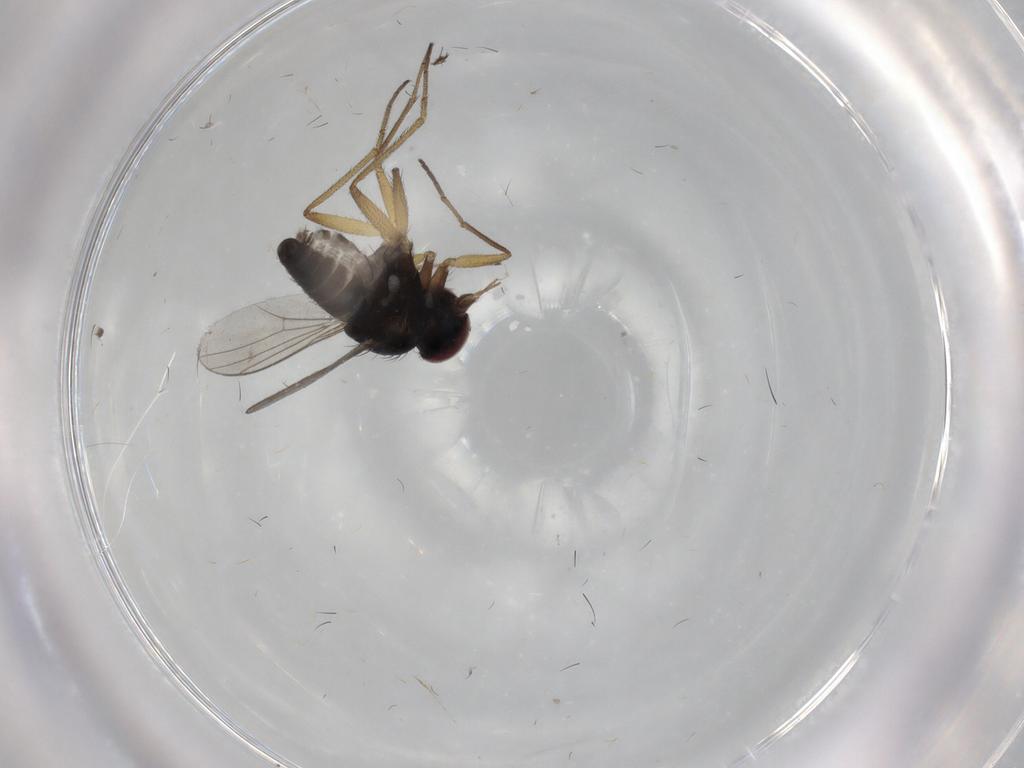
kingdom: Animalia
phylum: Arthropoda
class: Insecta
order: Diptera
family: Dolichopodidae
